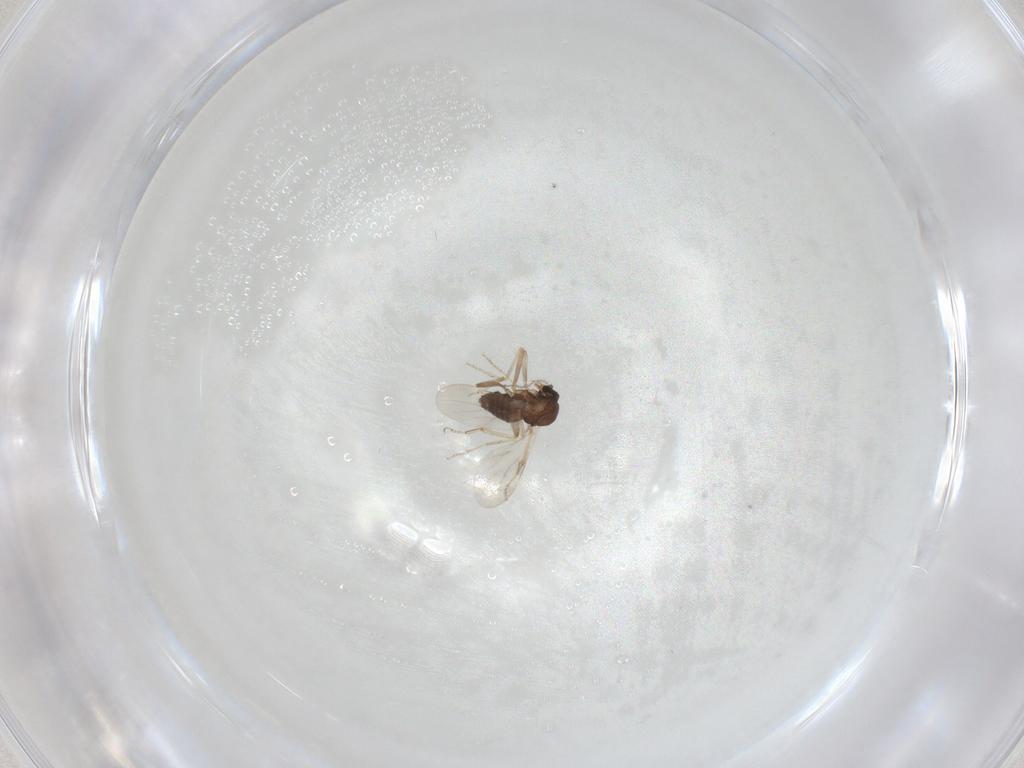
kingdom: Animalia
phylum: Arthropoda
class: Insecta
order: Diptera
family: Ceratopogonidae
